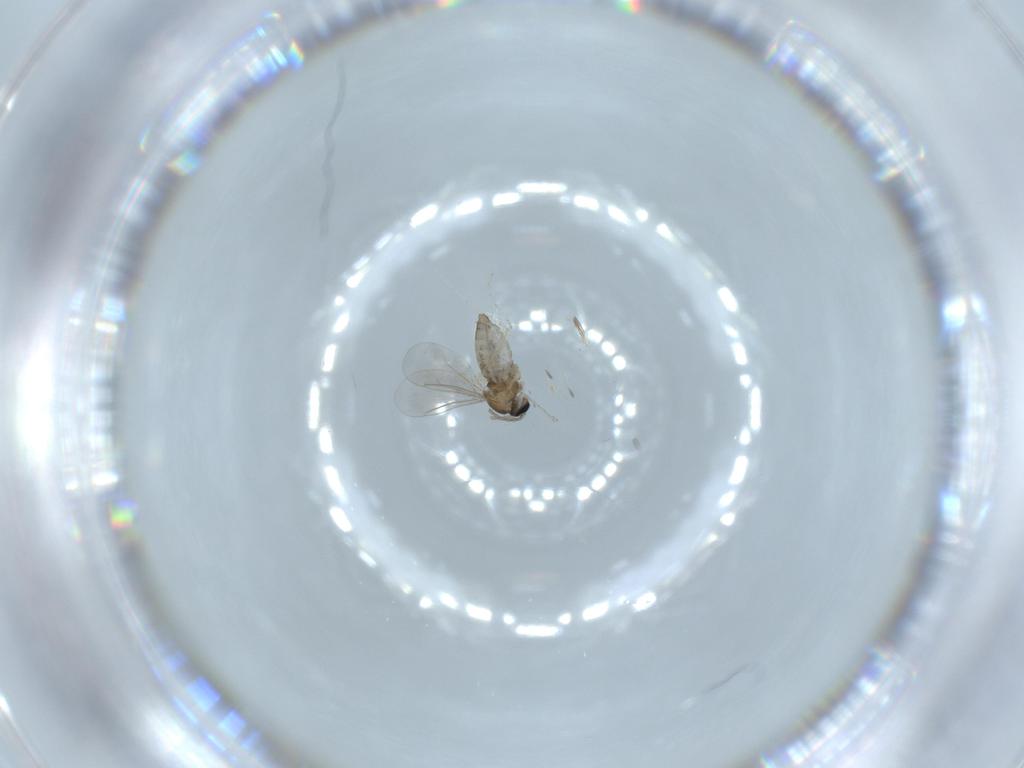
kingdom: Animalia
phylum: Arthropoda
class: Insecta
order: Diptera
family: Cecidomyiidae
